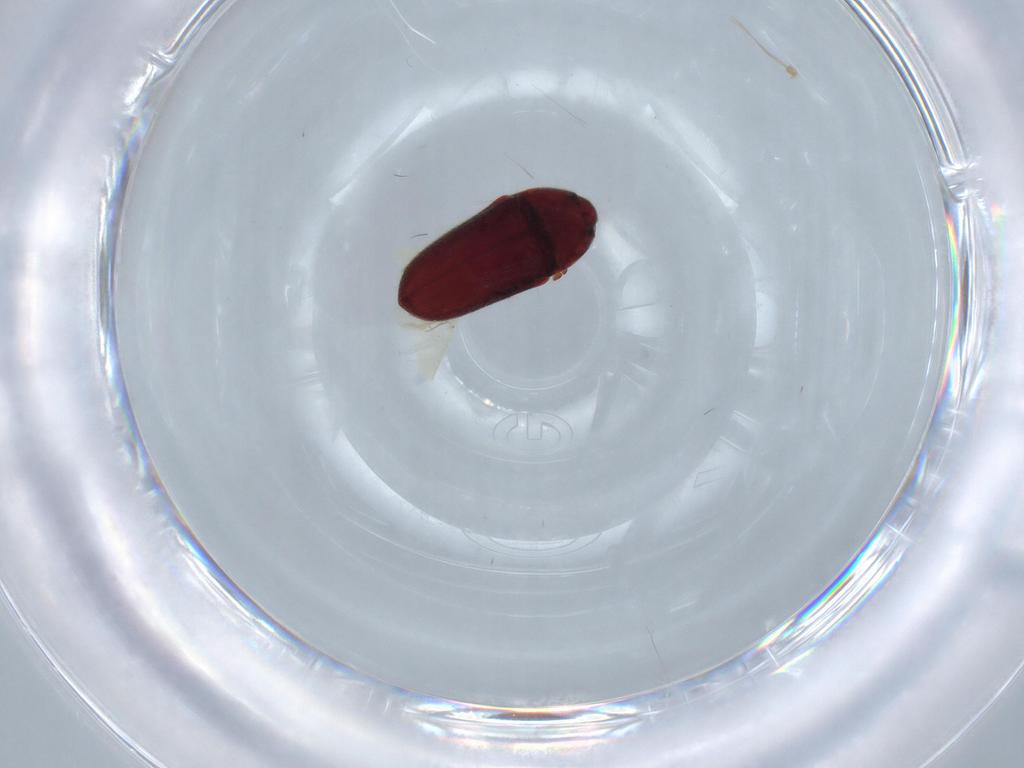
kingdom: Animalia
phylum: Arthropoda
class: Insecta
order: Coleoptera
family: Throscidae
